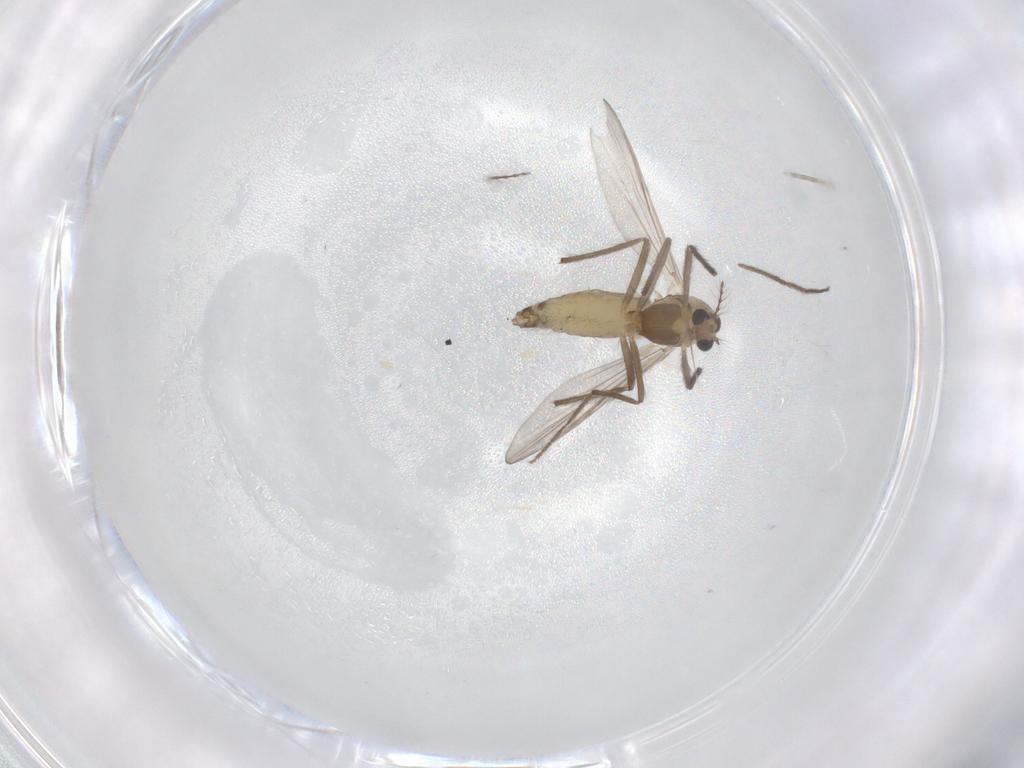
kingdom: Animalia
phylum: Arthropoda
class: Insecta
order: Diptera
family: Chironomidae
